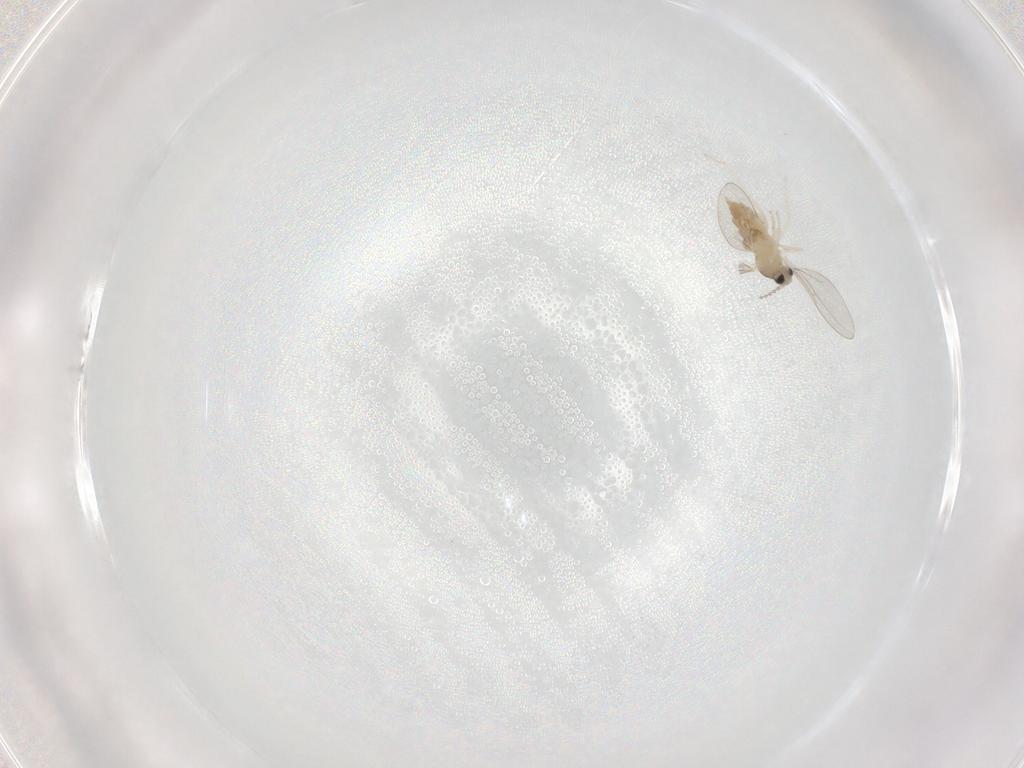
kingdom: Animalia
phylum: Arthropoda
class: Insecta
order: Diptera
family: Cecidomyiidae
